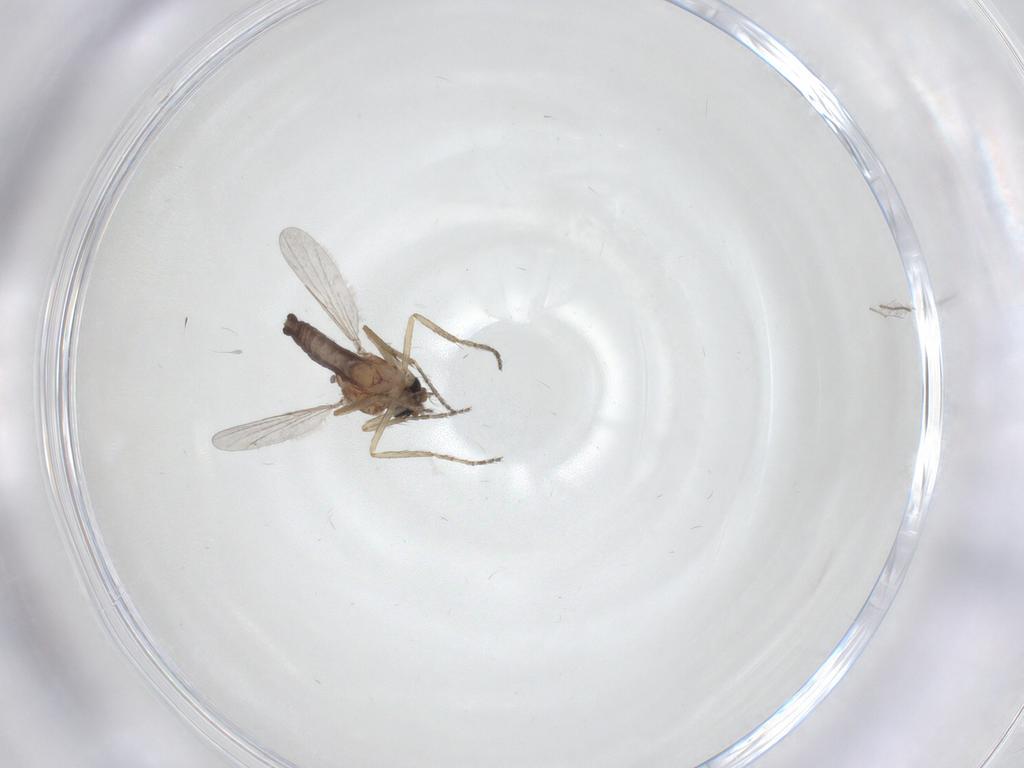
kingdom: Animalia
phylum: Arthropoda
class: Insecta
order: Diptera
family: Ceratopogonidae
